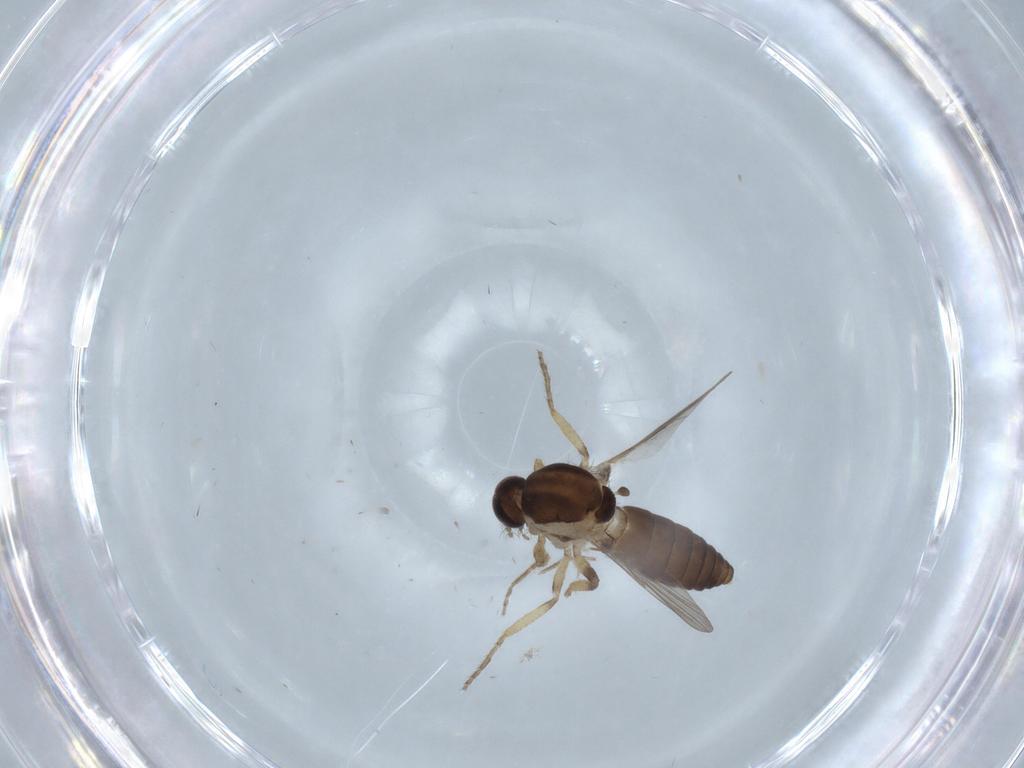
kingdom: Animalia
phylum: Arthropoda
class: Insecta
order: Diptera
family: Ceratopogonidae
